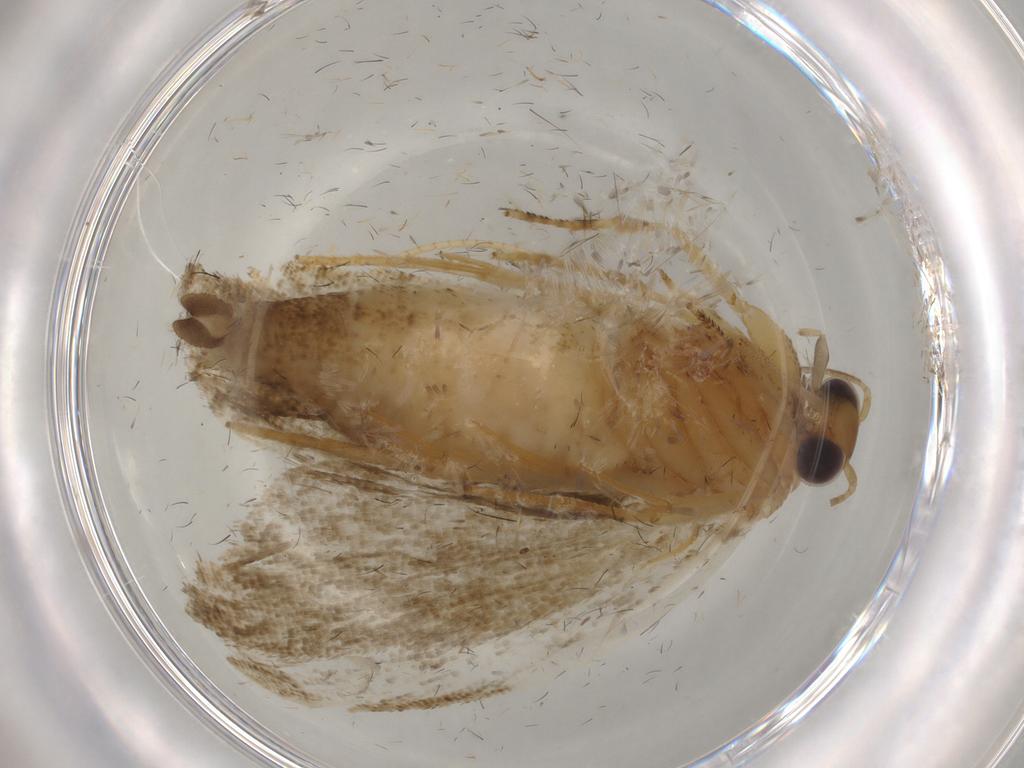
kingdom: Animalia
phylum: Arthropoda
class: Insecta
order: Lepidoptera
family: Tortricidae
